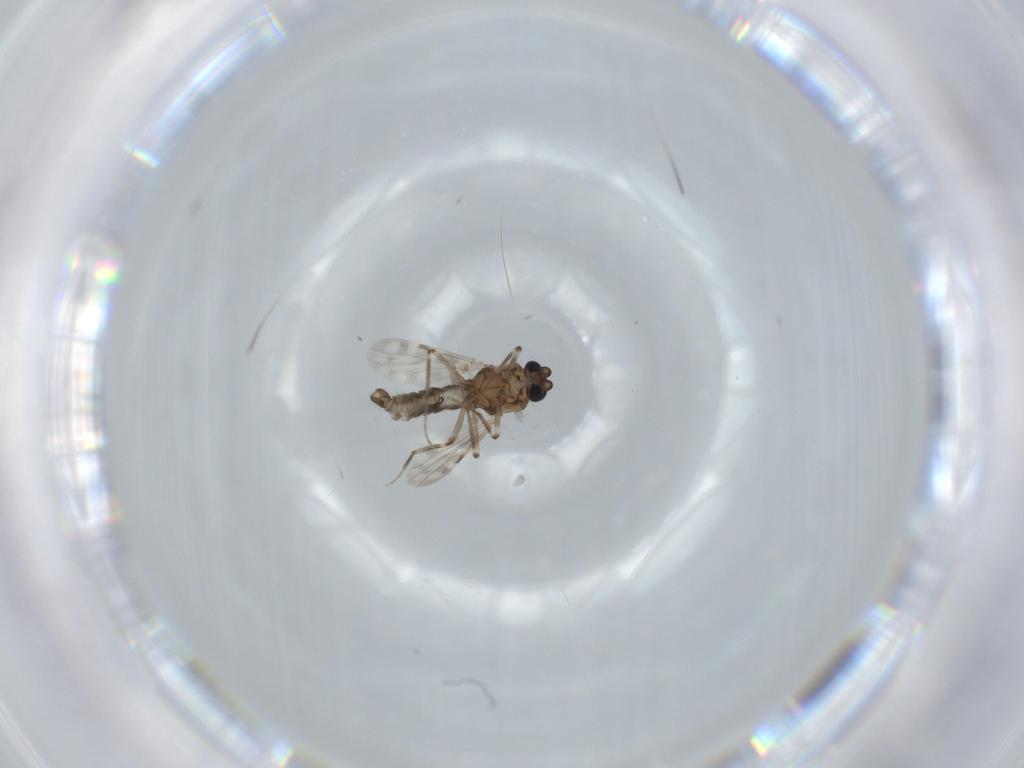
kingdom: Animalia
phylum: Arthropoda
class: Insecta
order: Diptera
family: Ceratopogonidae
